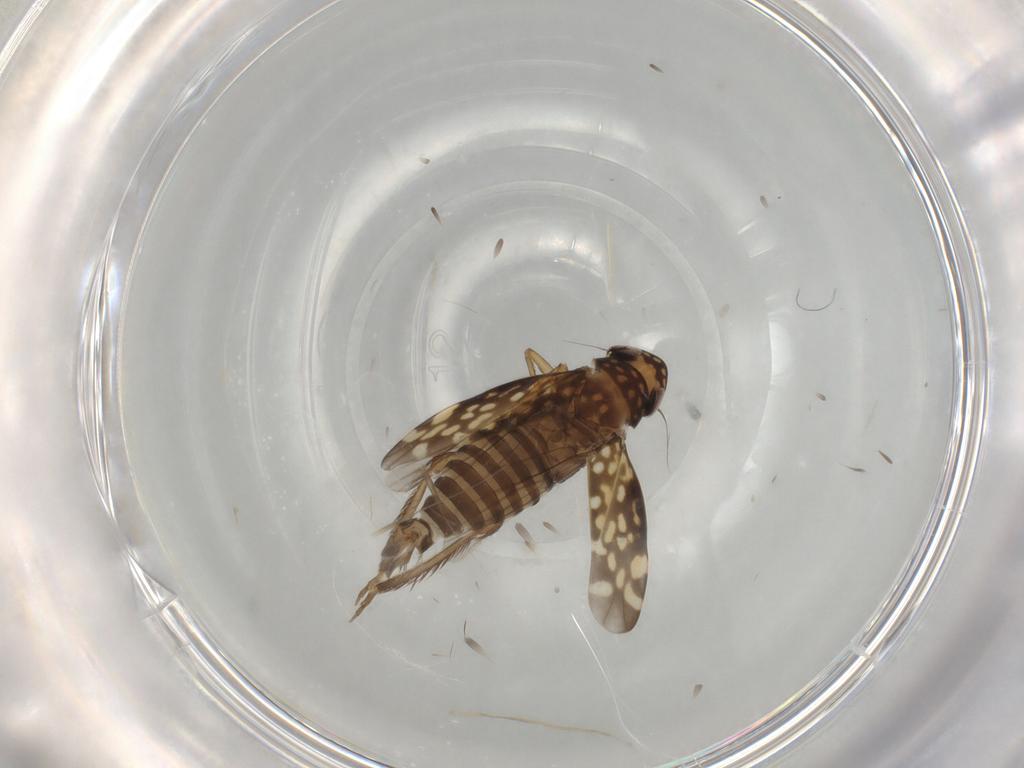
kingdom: Animalia
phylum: Arthropoda
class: Insecta
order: Hemiptera
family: Cicadellidae
